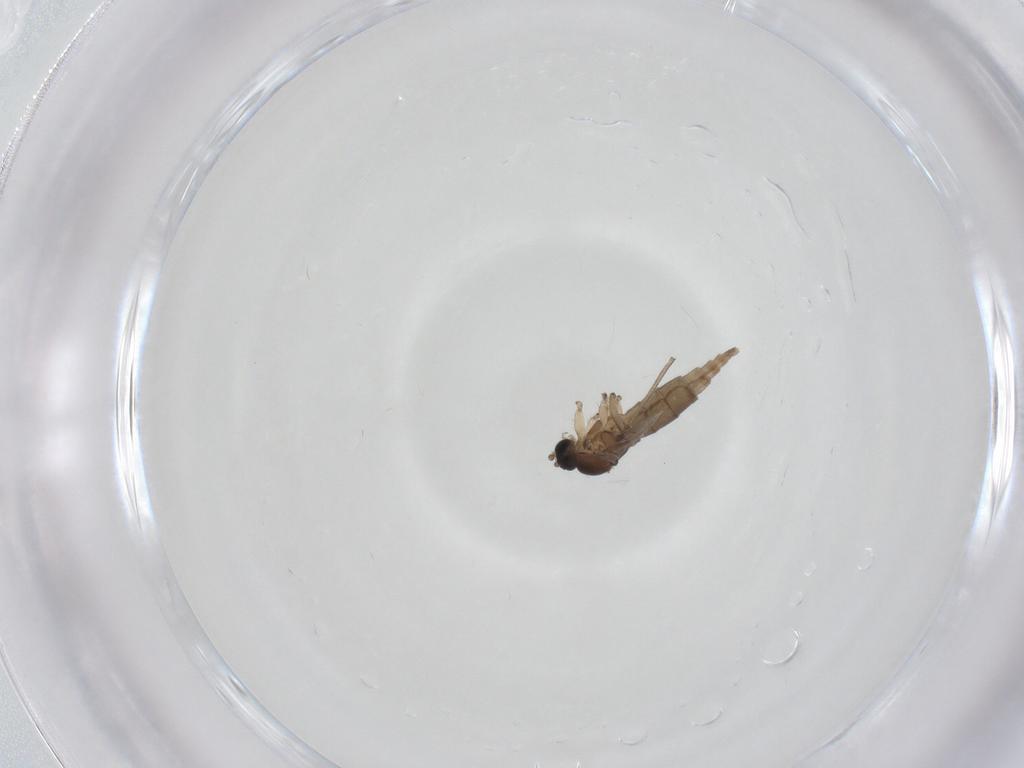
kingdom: Animalia
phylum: Arthropoda
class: Insecta
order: Diptera
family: Sciaridae
